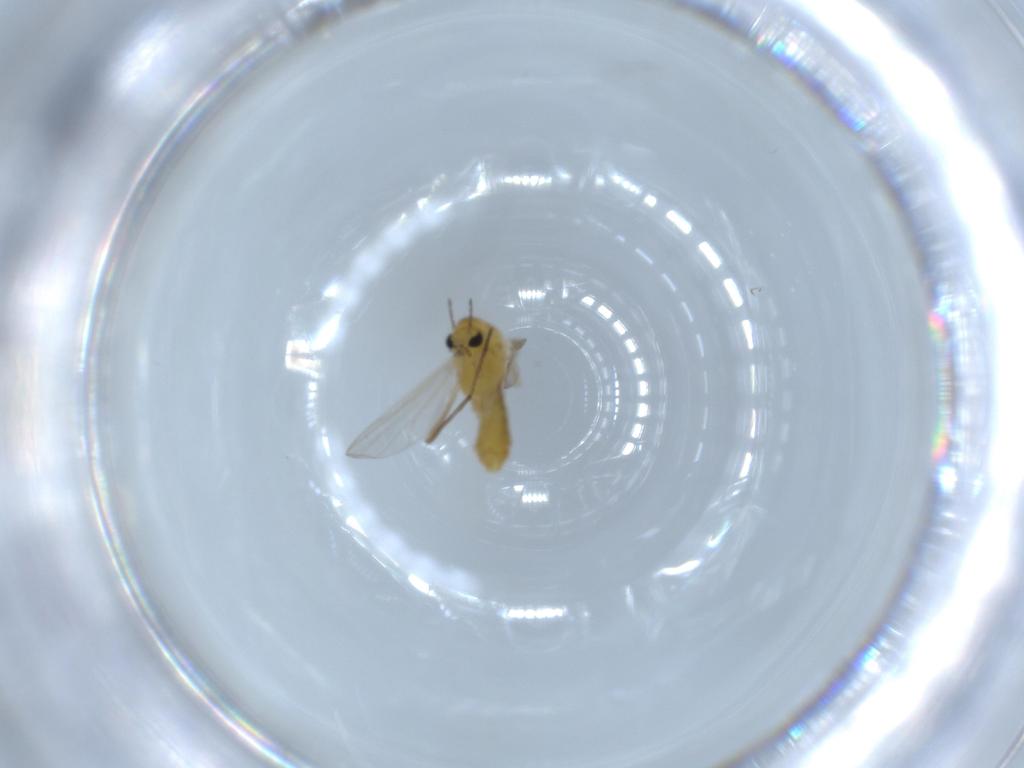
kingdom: Animalia
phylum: Arthropoda
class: Insecta
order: Diptera
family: Chironomidae
